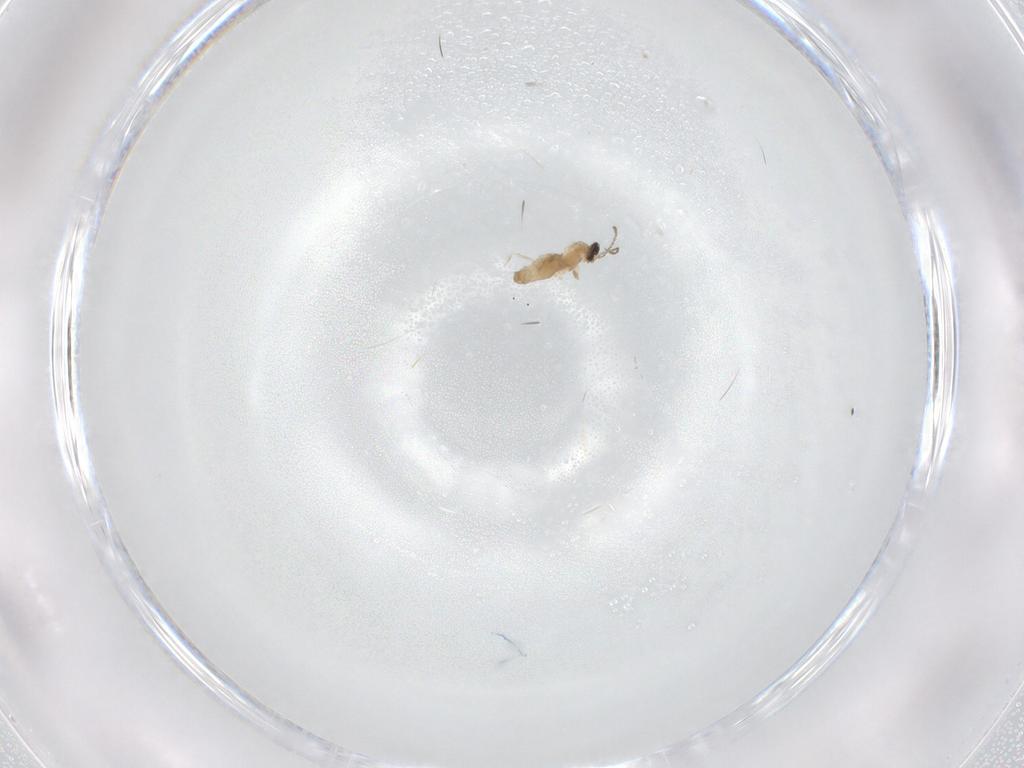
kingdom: Animalia
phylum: Arthropoda
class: Insecta
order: Diptera
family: Cecidomyiidae
